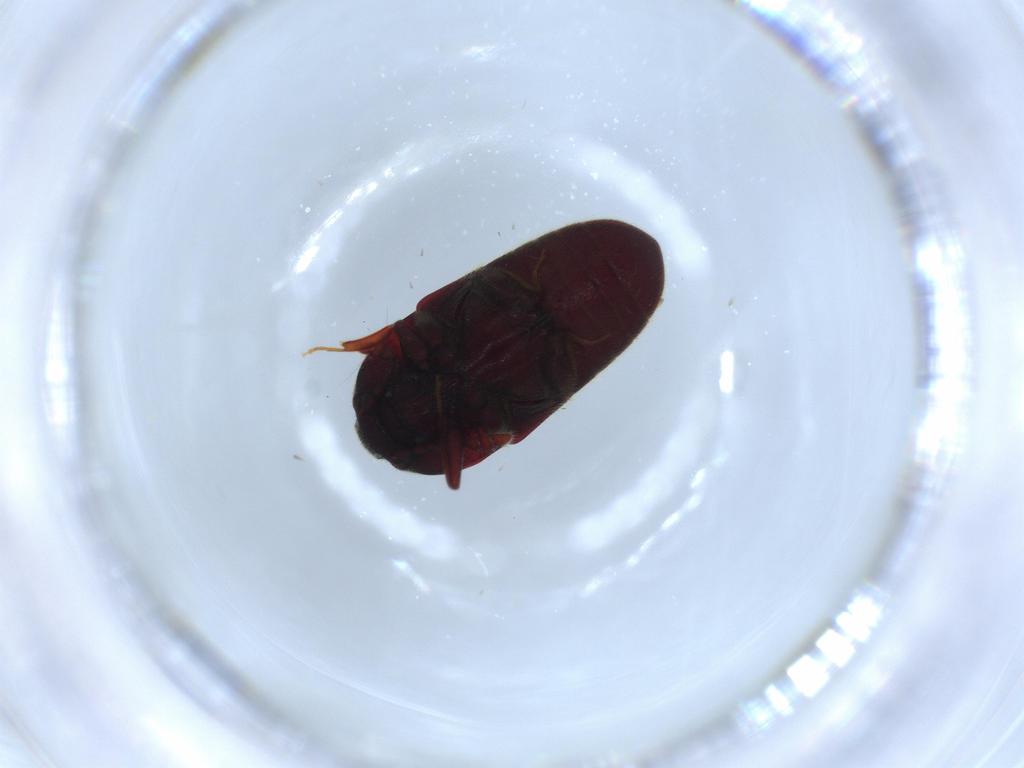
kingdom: Animalia
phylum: Arthropoda
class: Insecta
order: Coleoptera
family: Throscidae
